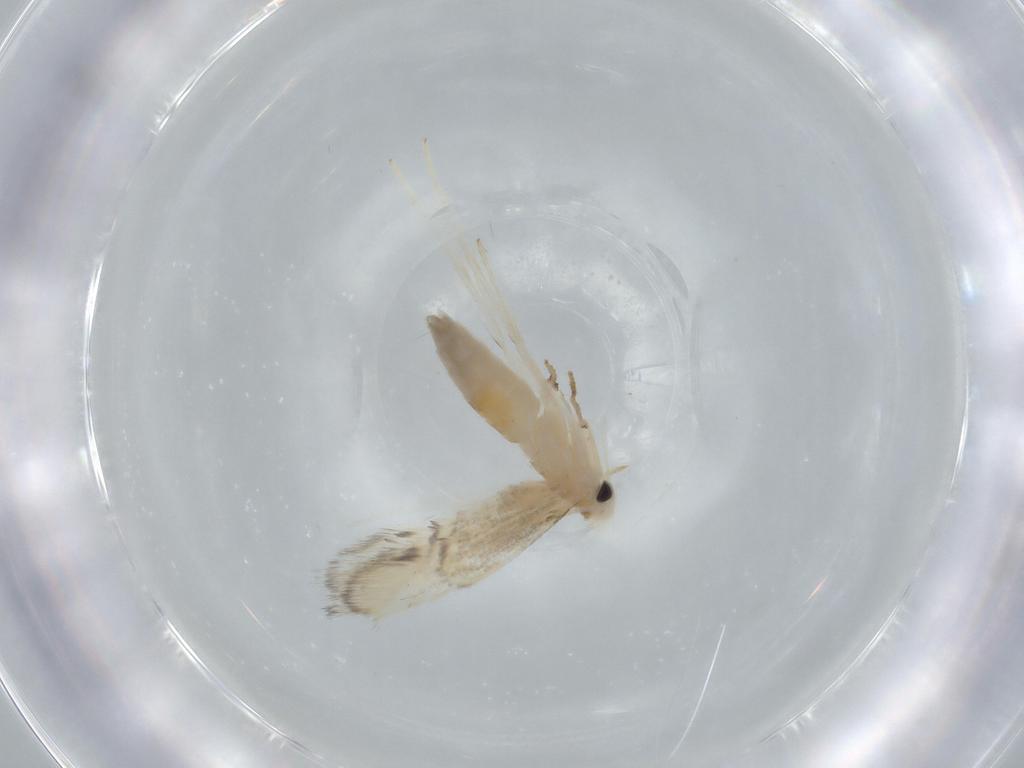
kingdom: Animalia
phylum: Arthropoda
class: Insecta
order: Lepidoptera
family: Gracillariidae
